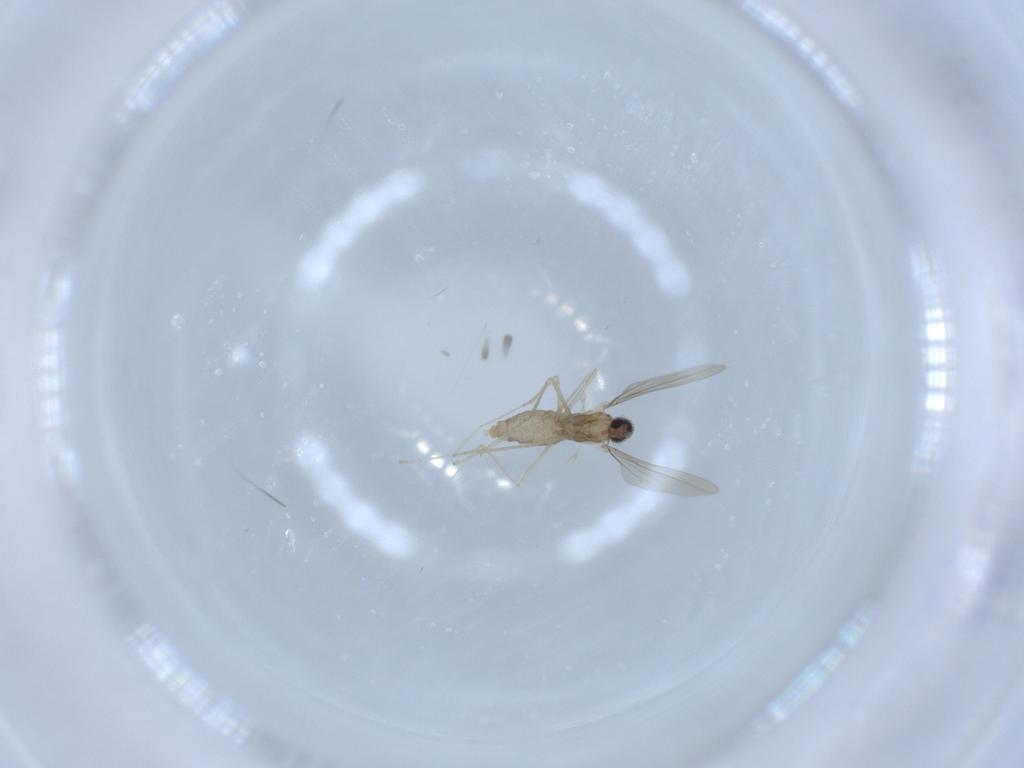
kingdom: Animalia
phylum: Arthropoda
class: Insecta
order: Diptera
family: Cecidomyiidae
